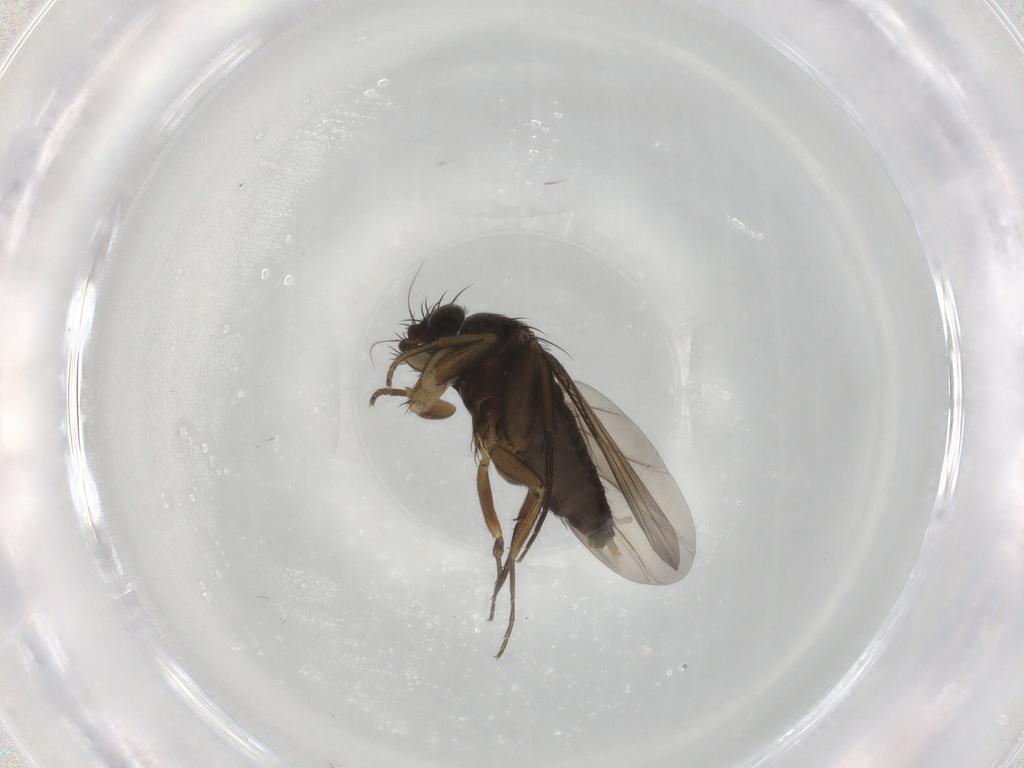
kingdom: Animalia
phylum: Arthropoda
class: Insecta
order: Diptera
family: Phoridae
